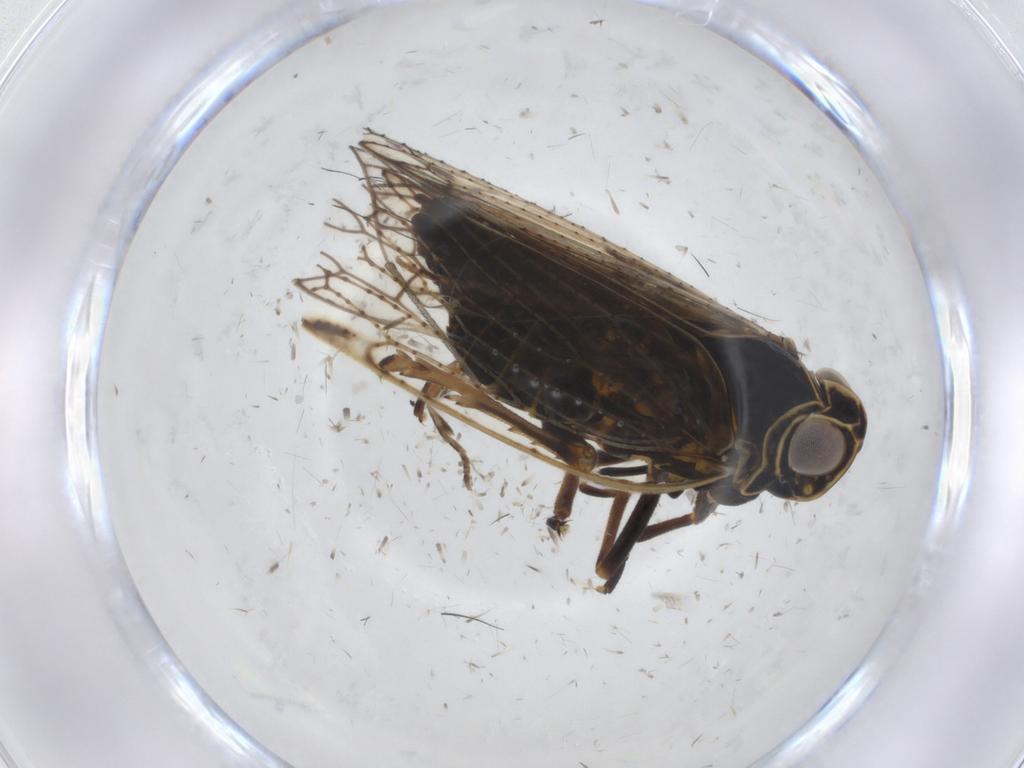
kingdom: Animalia
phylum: Arthropoda
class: Insecta
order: Hemiptera
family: Cixiidae
